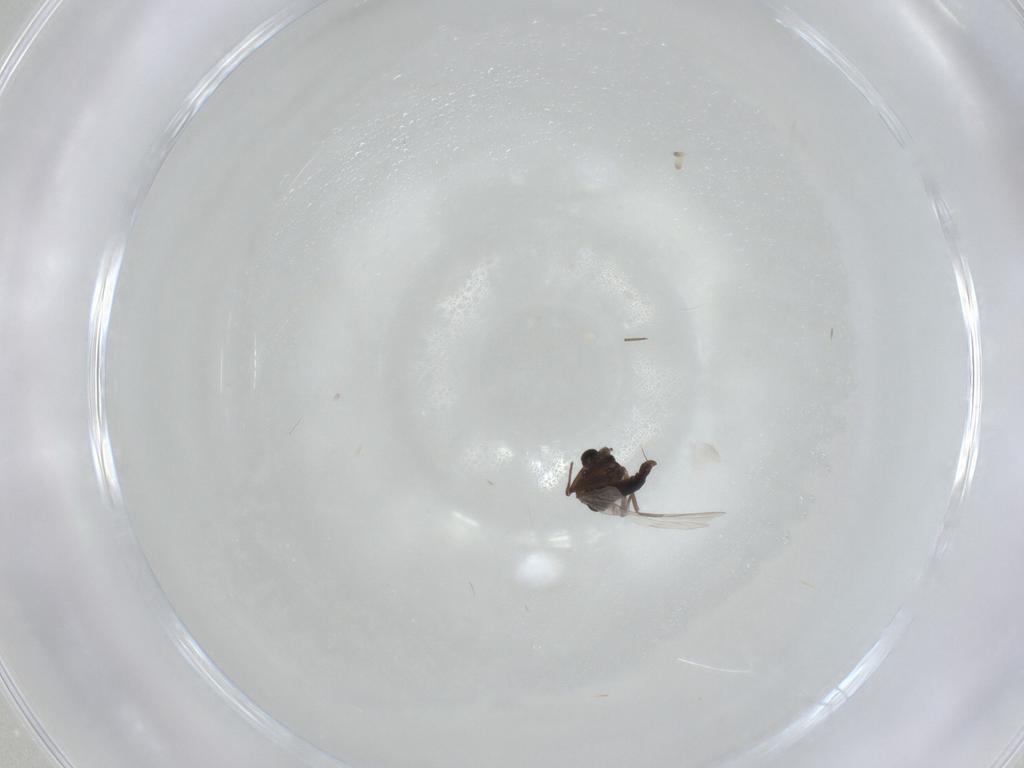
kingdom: Animalia
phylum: Arthropoda
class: Insecta
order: Diptera
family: Chironomidae
